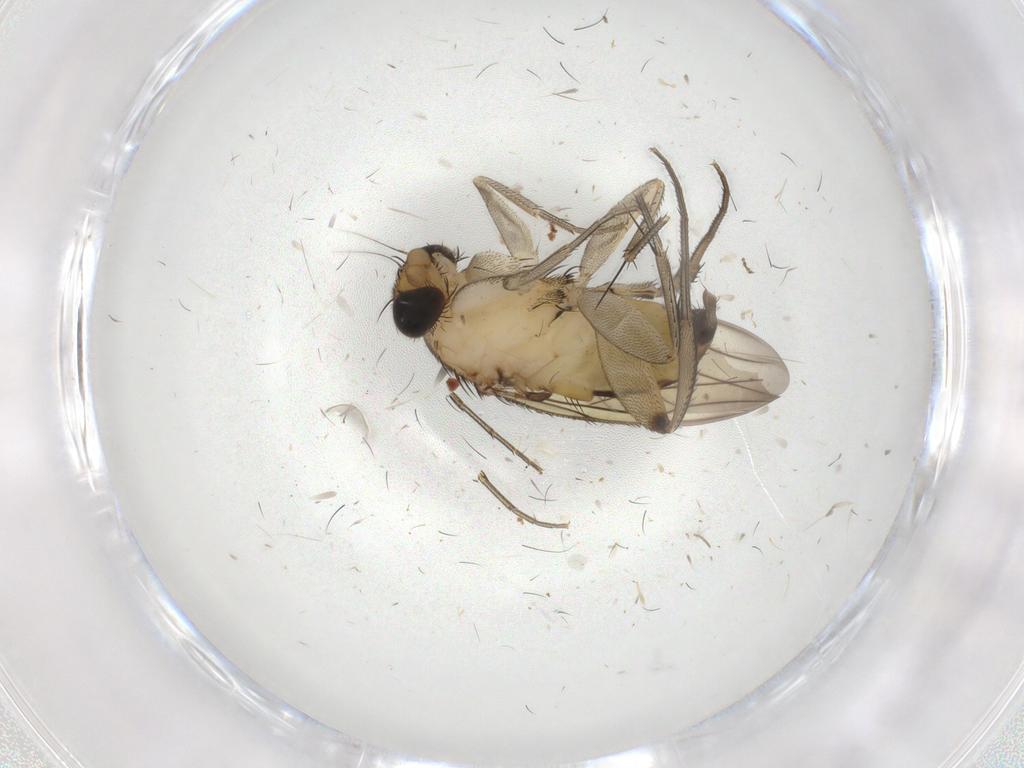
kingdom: Animalia
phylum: Arthropoda
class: Insecta
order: Diptera
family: Phoridae
